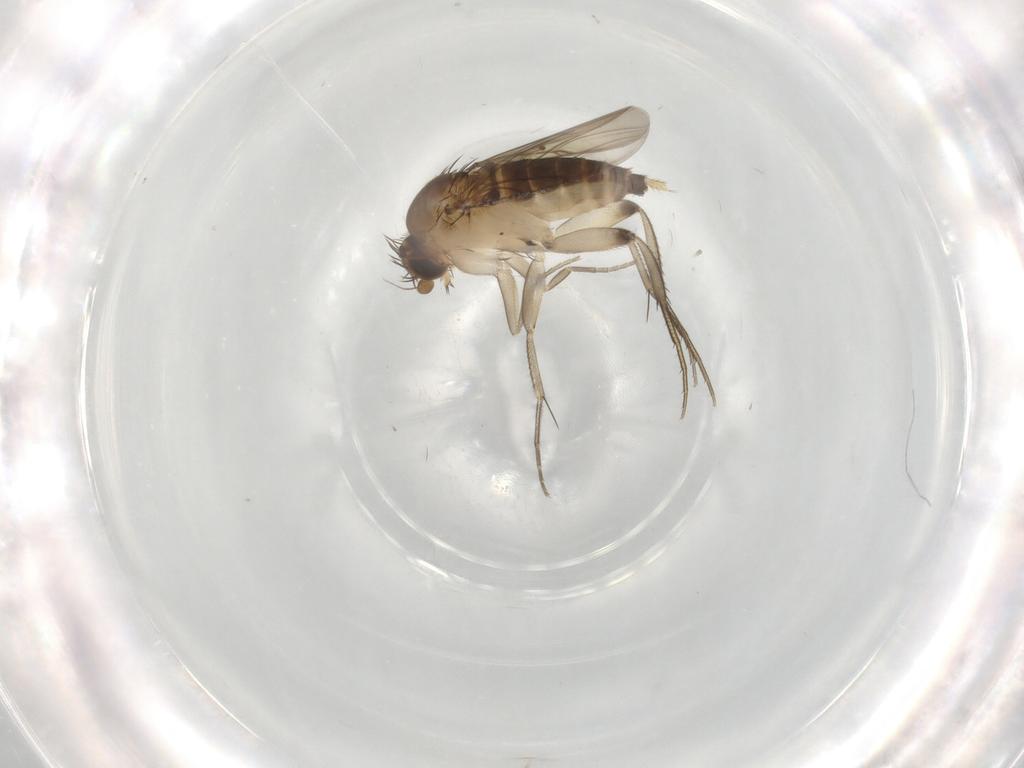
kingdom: Animalia
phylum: Arthropoda
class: Insecta
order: Diptera
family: Phoridae
